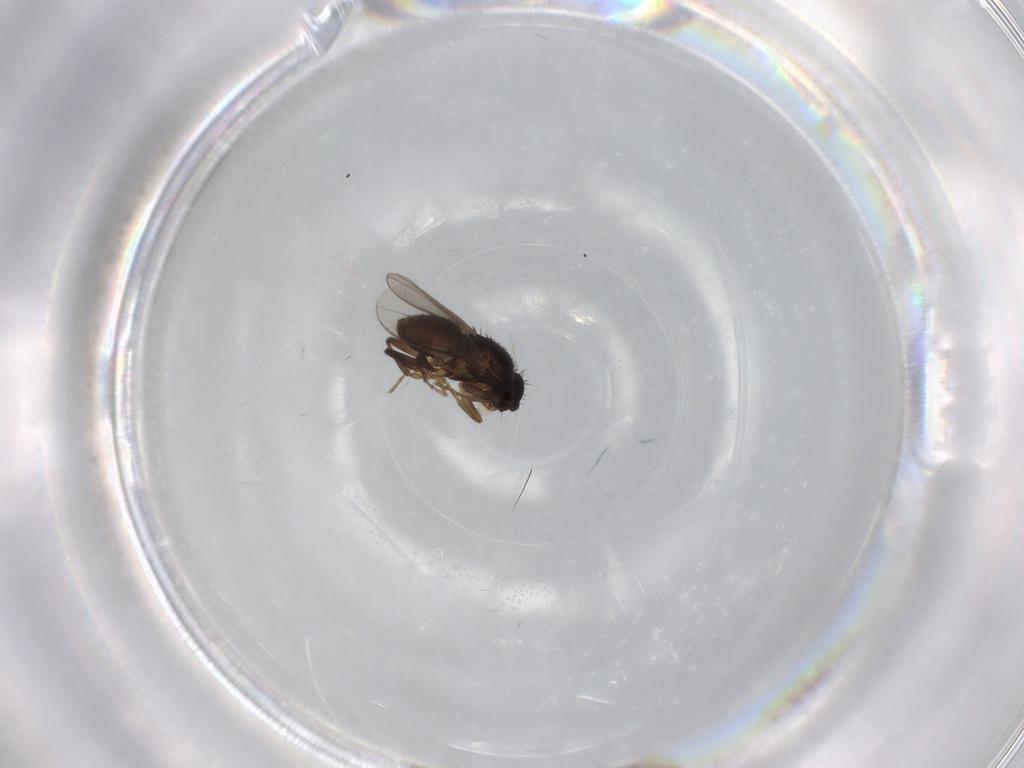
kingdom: Animalia
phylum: Arthropoda
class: Insecta
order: Diptera
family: Sphaeroceridae
